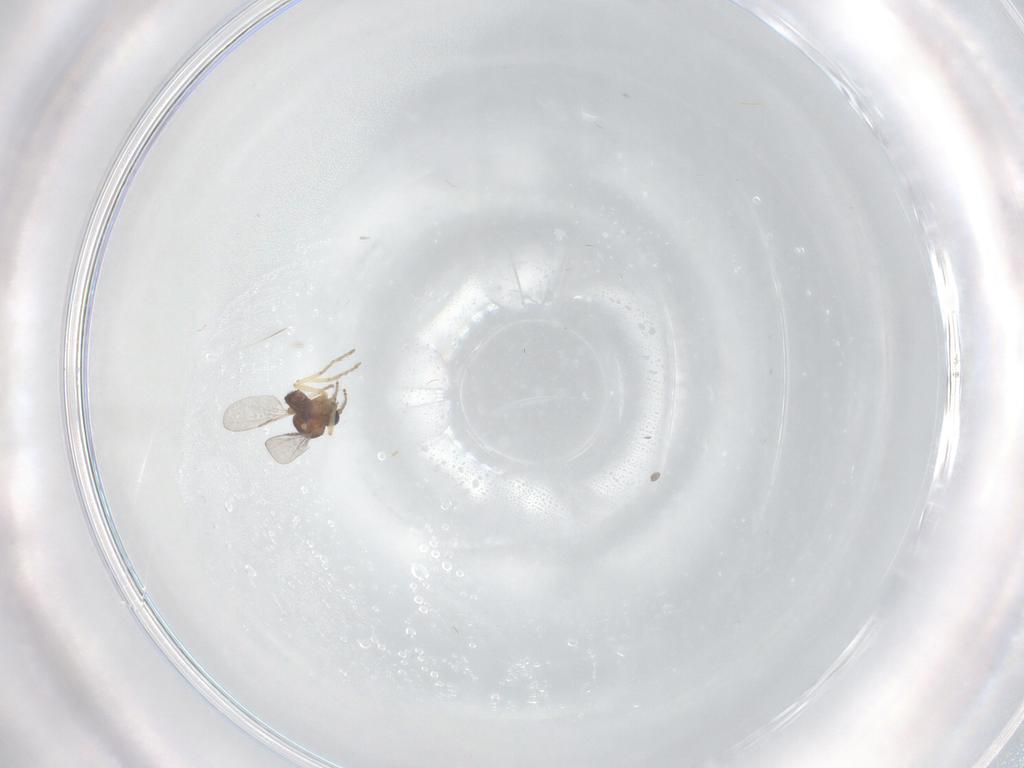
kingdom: Animalia
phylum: Arthropoda
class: Insecta
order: Diptera
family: Ceratopogonidae
